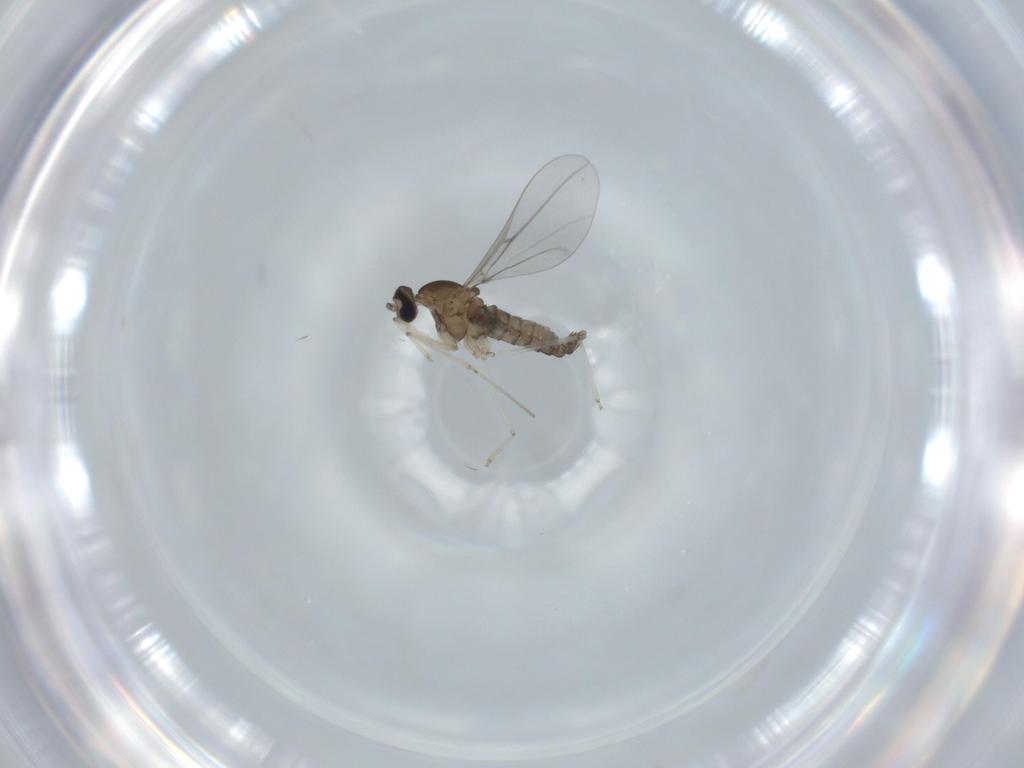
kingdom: Animalia
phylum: Arthropoda
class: Insecta
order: Diptera
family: Cecidomyiidae
